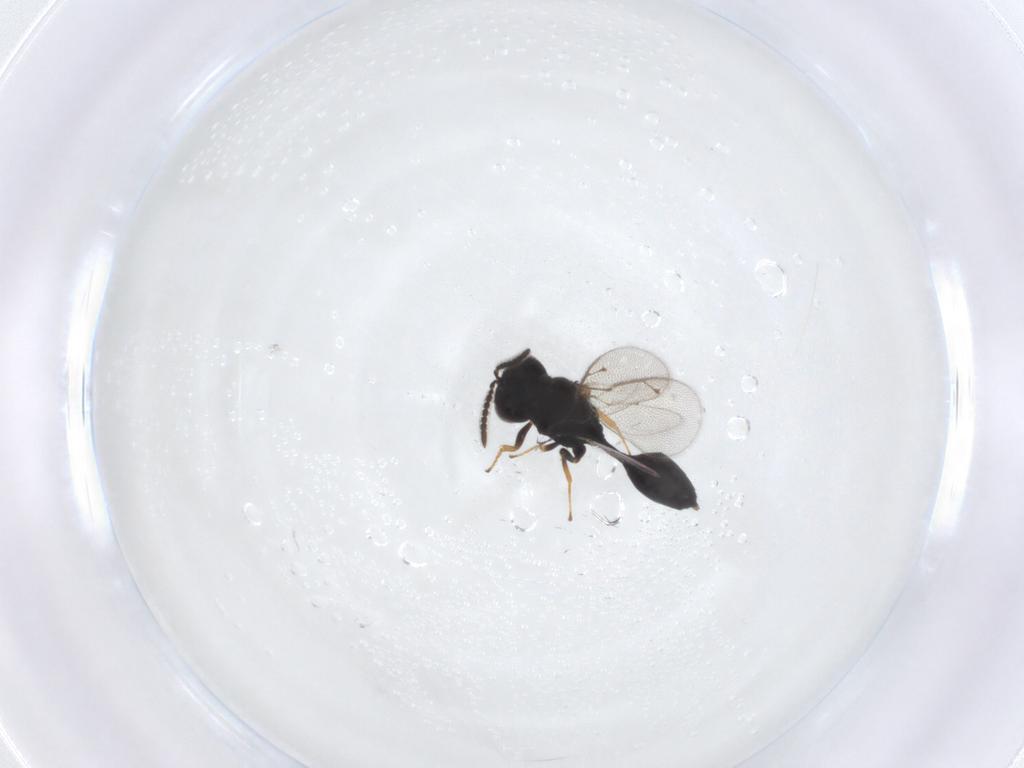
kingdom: Animalia
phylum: Arthropoda
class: Insecta
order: Hymenoptera
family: Pteromalidae
